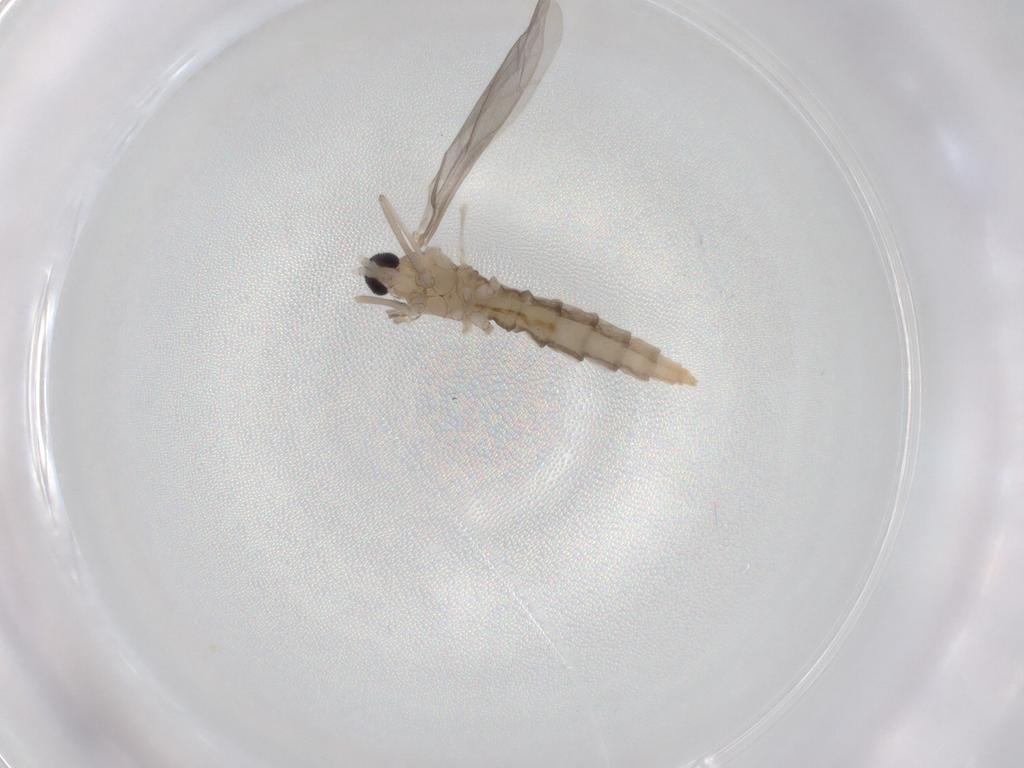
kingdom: Animalia
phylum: Arthropoda
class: Insecta
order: Diptera
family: Cecidomyiidae
